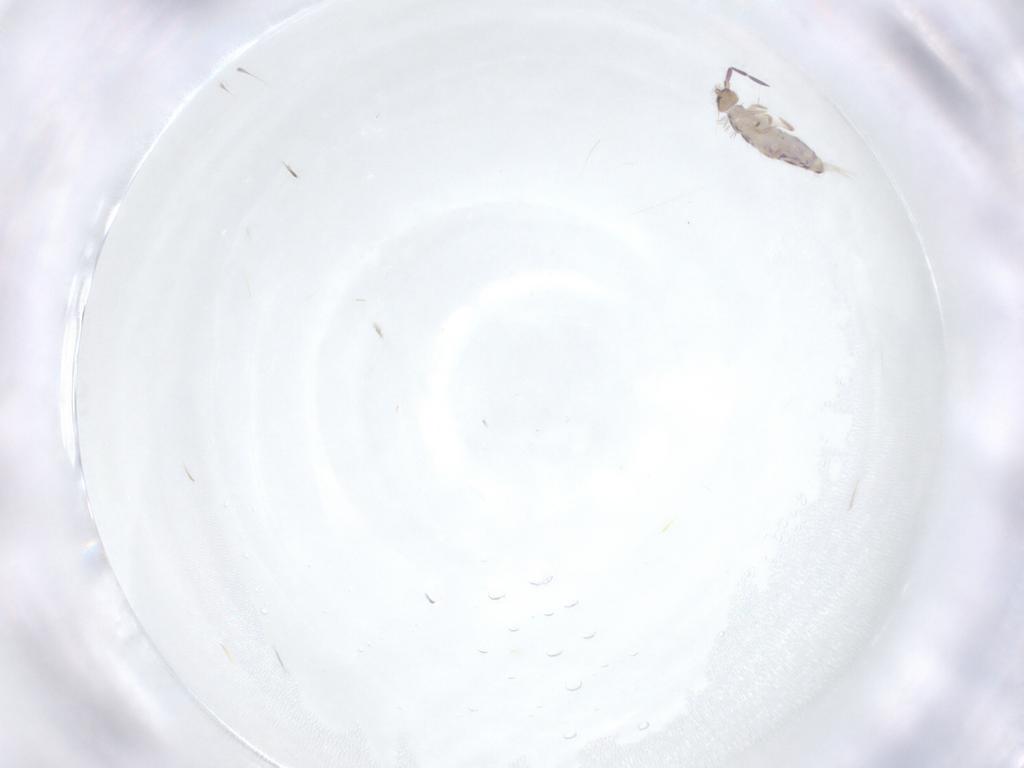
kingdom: Animalia
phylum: Arthropoda
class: Collembola
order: Entomobryomorpha
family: Entomobryidae
